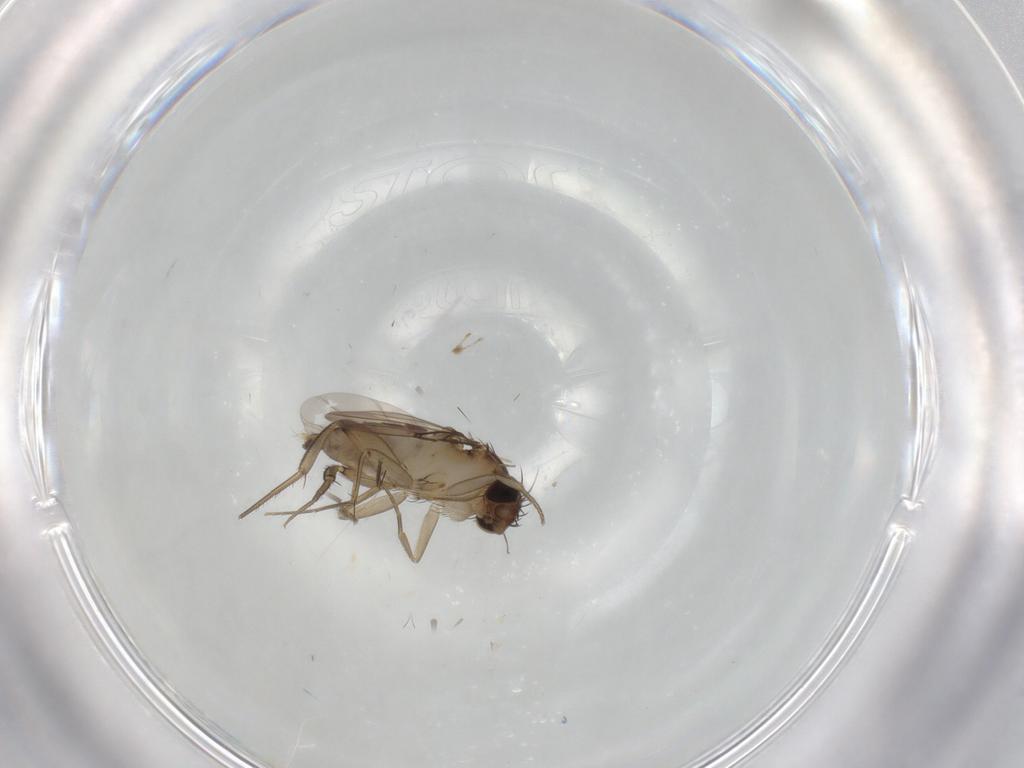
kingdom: Animalia
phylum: Arthropoda
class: Insecta
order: Diptera
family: Phoridae
